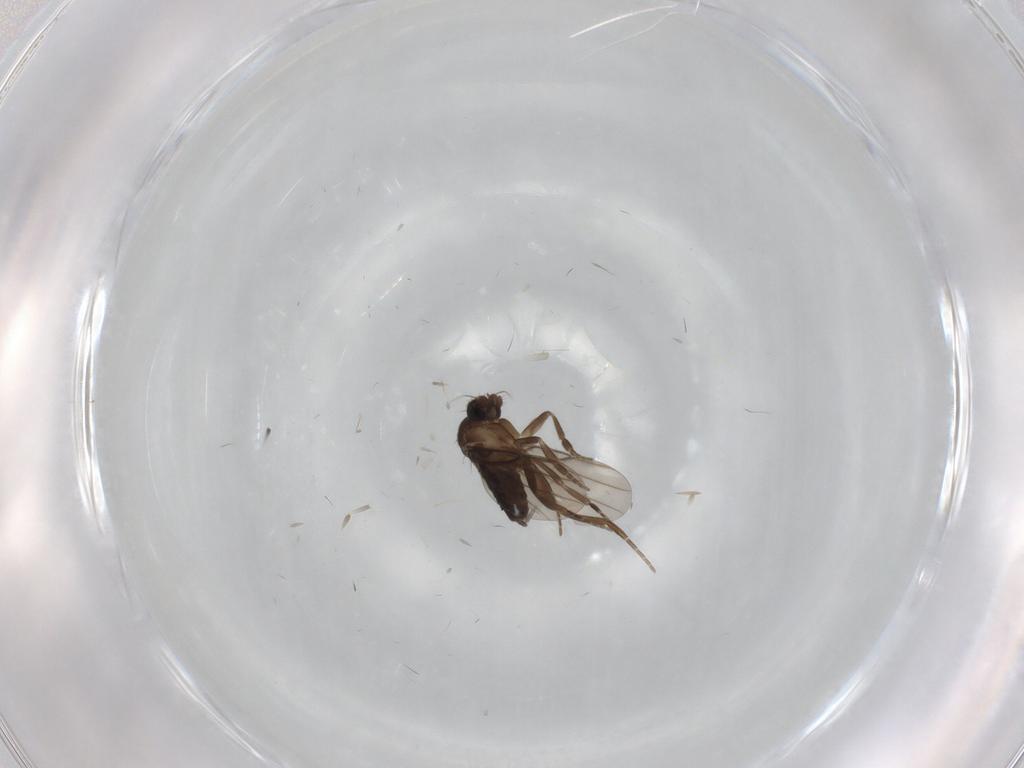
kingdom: Animalia
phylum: Arthropoda
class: Insecta
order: Diptera
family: Phoridae
